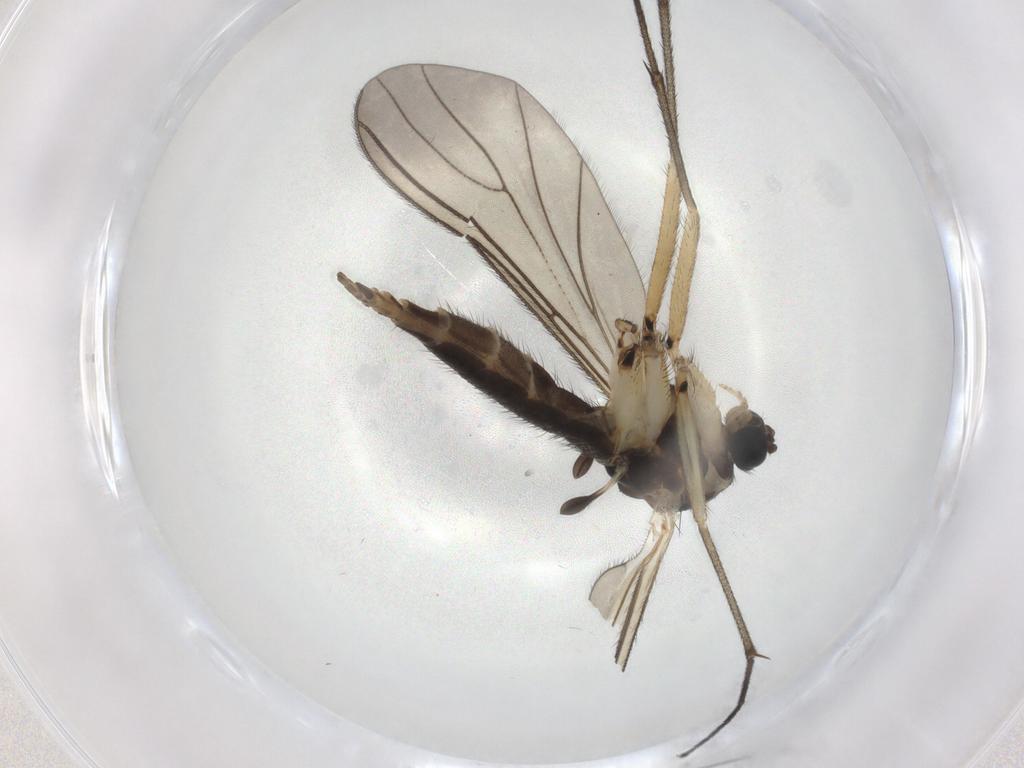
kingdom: Animalia
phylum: Arthropoda
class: Insecta
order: Diptera
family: Sciaridae
